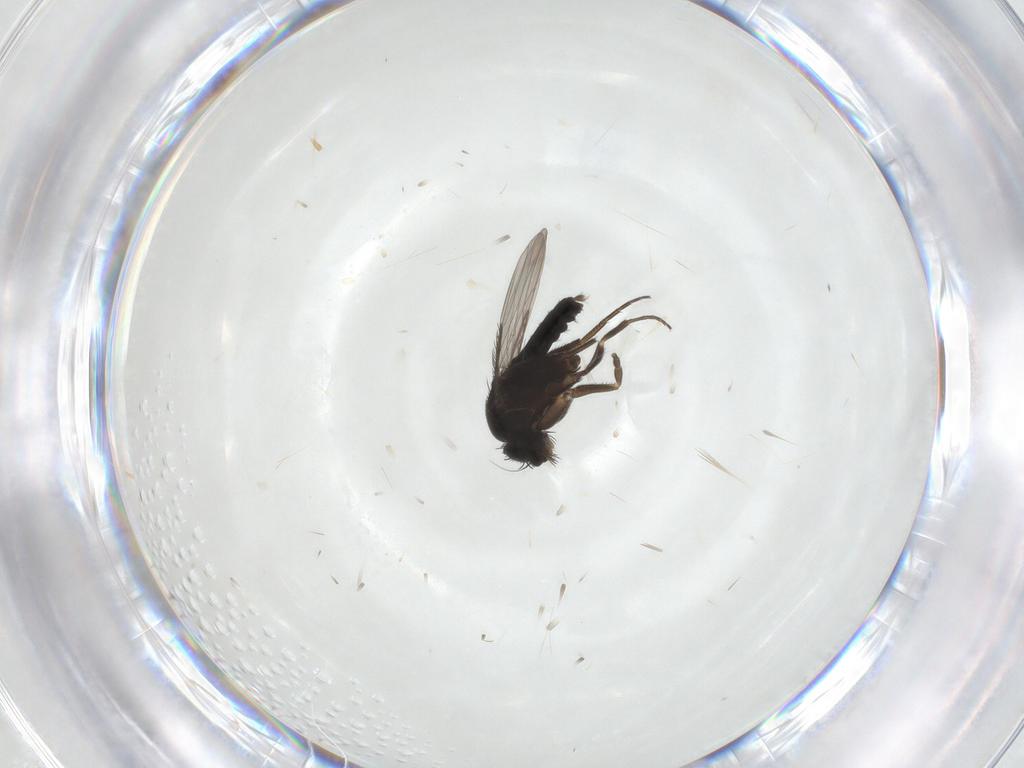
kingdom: Animalia
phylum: Arthropoda
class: Insecta
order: Diptera
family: Phoridae
